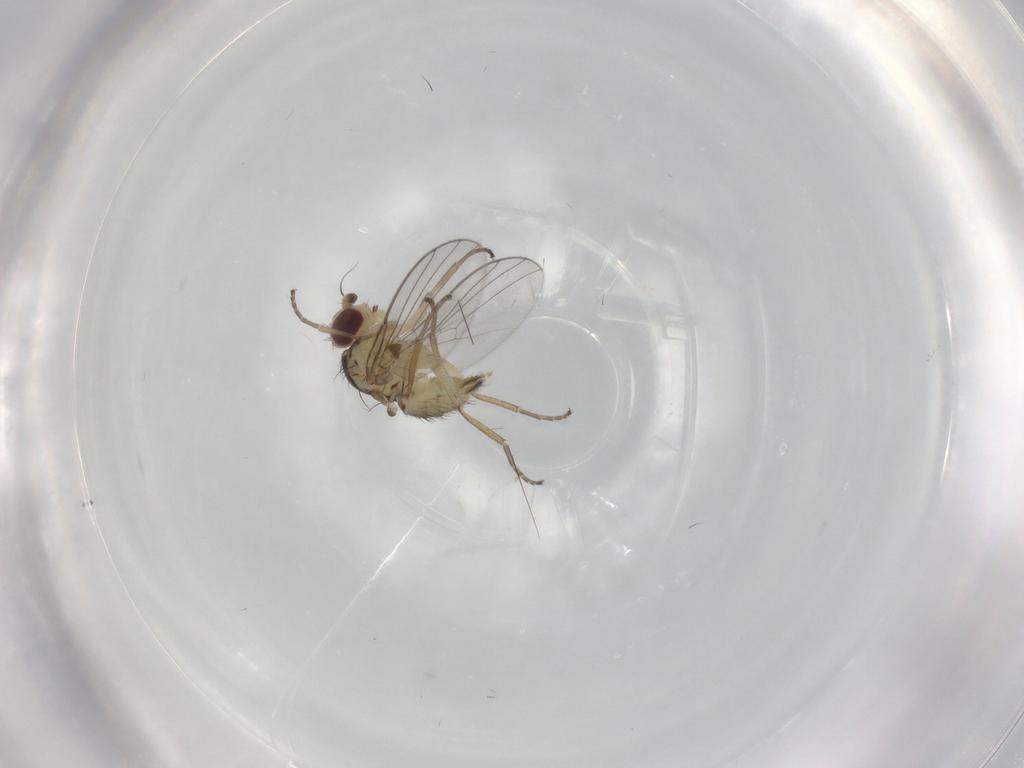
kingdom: Animalia
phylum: Arthropoda
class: Insecta
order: Diptera
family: Agromyzidae
